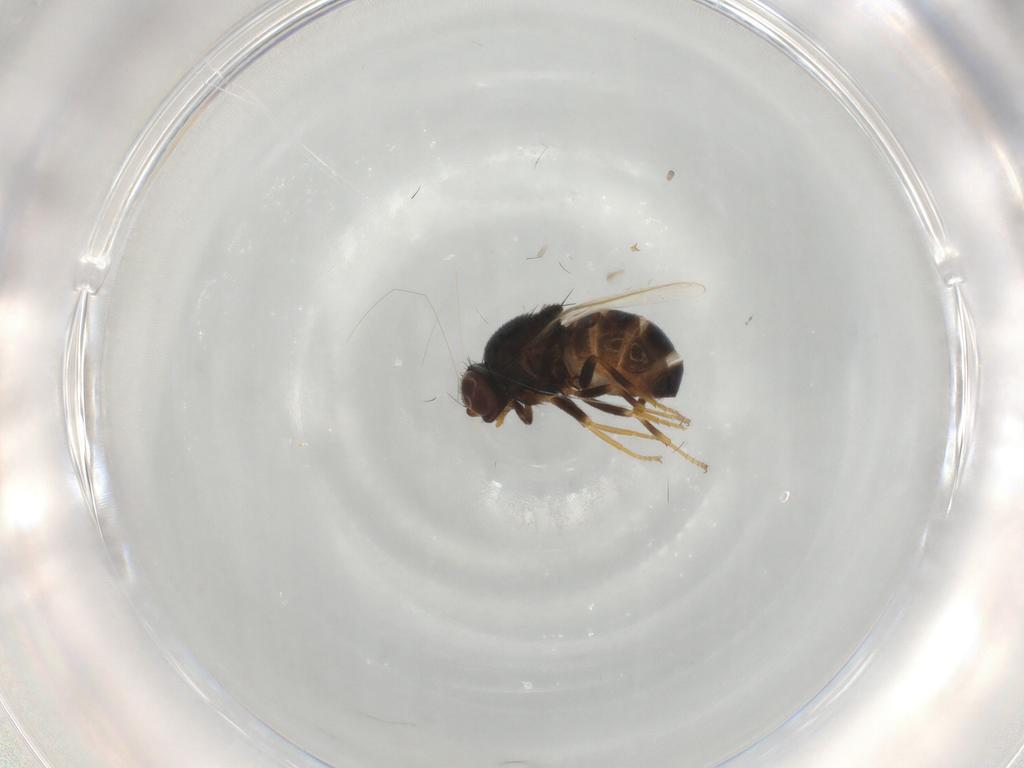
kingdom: Animalia
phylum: Arthropoda
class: Insecta
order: Diptera
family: Chloropidae
